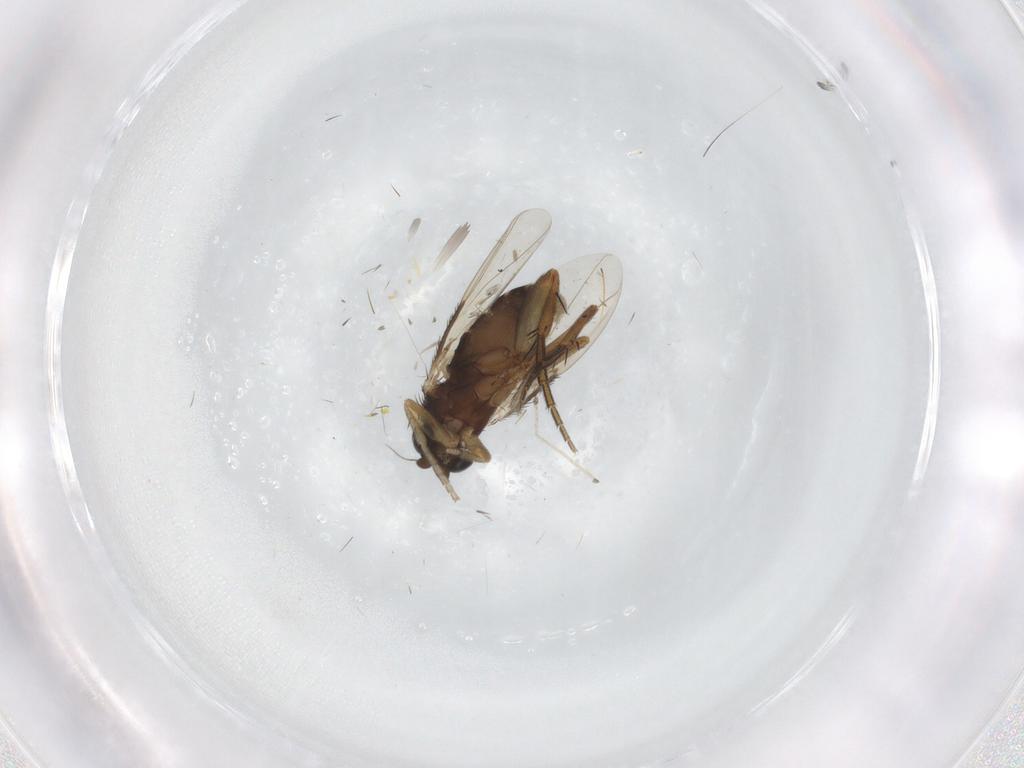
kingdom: Animalia
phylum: Arthropoda
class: Insecta
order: Diptera
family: Phoridae
